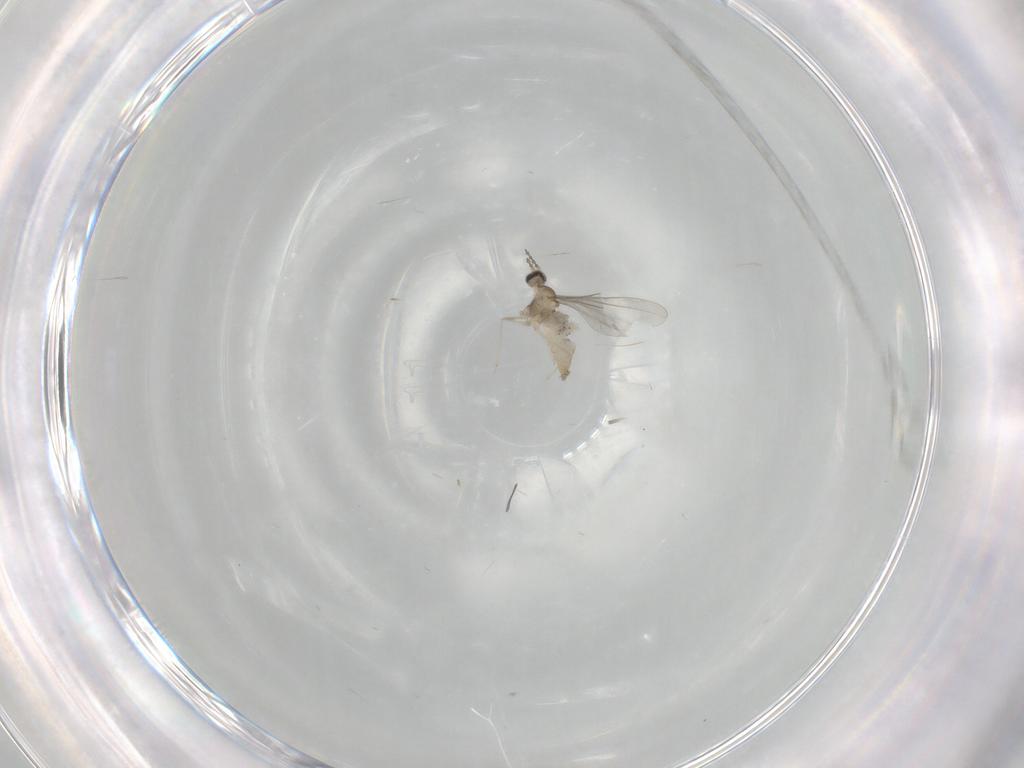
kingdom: Animalia
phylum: Arthropoda
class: Insecta
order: Diptera
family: Cecidomyiidae
